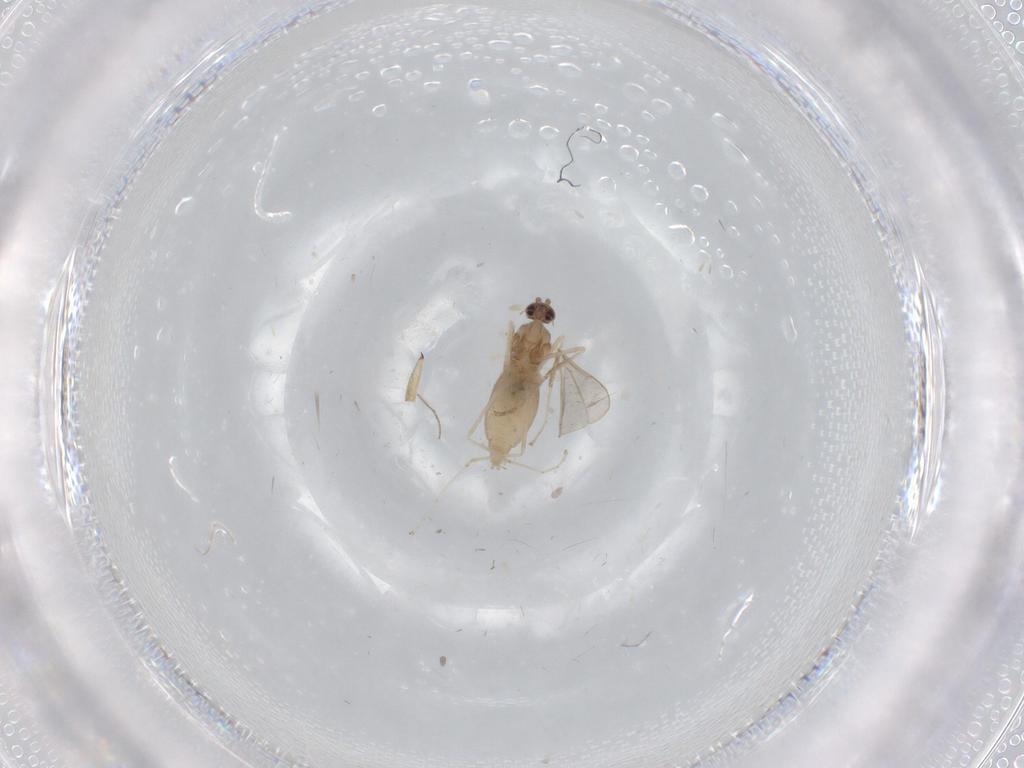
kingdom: Animalia
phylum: Arthropoda
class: Insecta
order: Diptera
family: Cecidomyiidae
